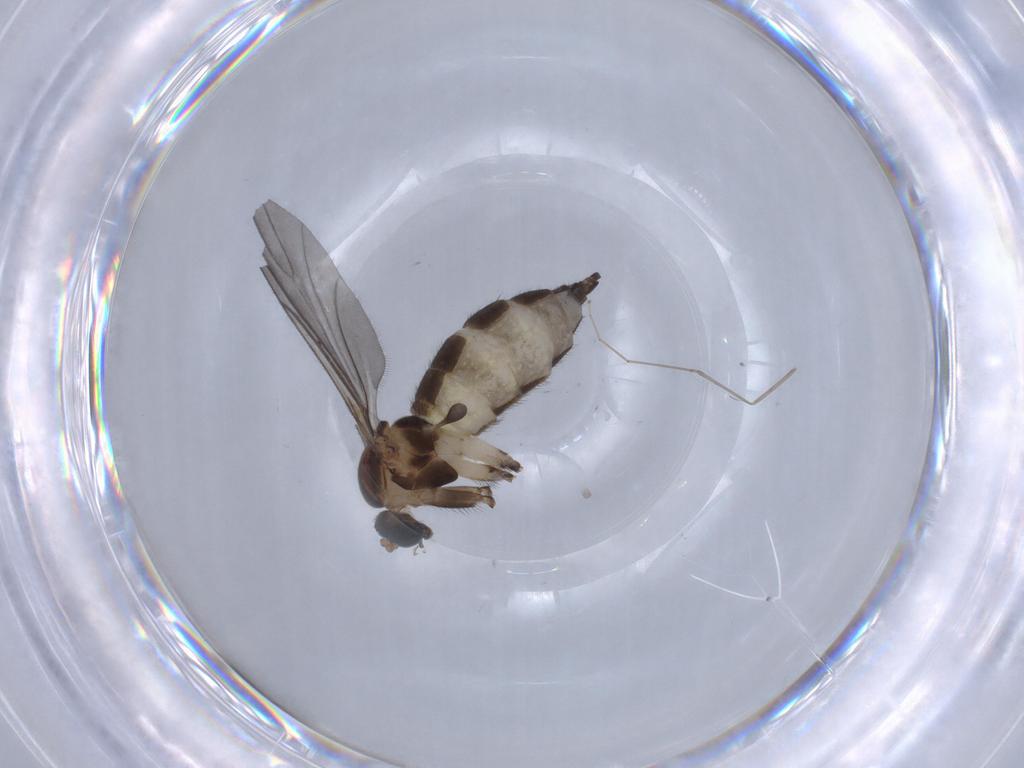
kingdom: Animalia
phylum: Arthropoda
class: Insecta
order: Diptera
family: Sciaridae
